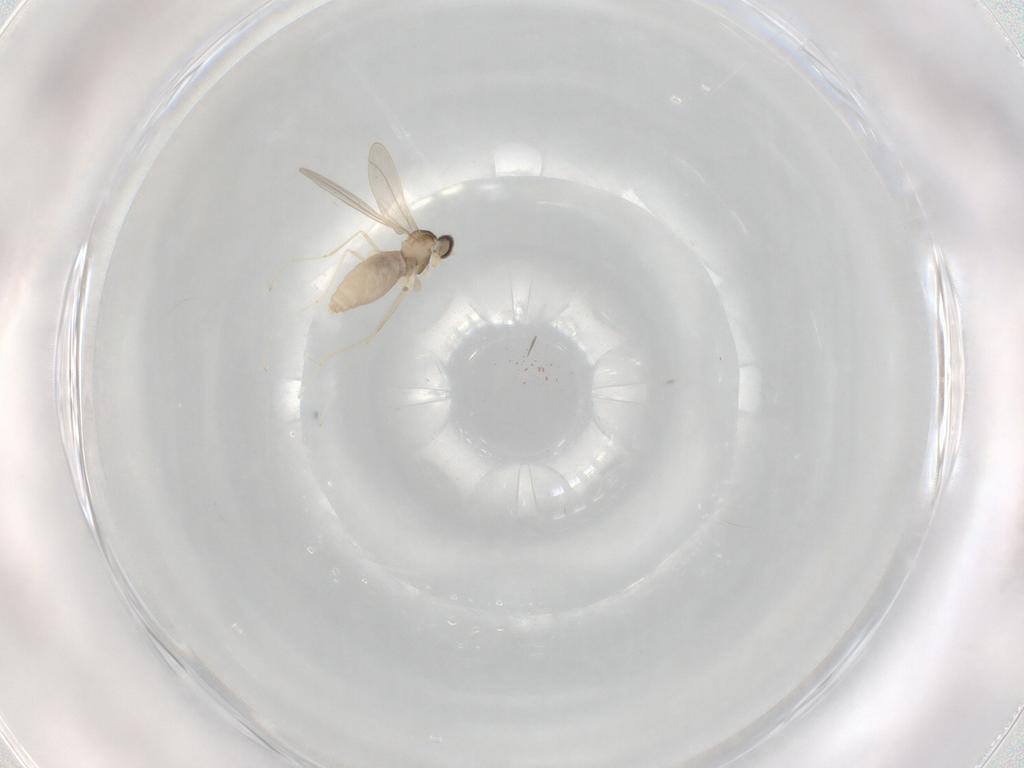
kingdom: Animalia
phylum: Arthropoda
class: Insecta
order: Diptera
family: Cecidomyiidae
